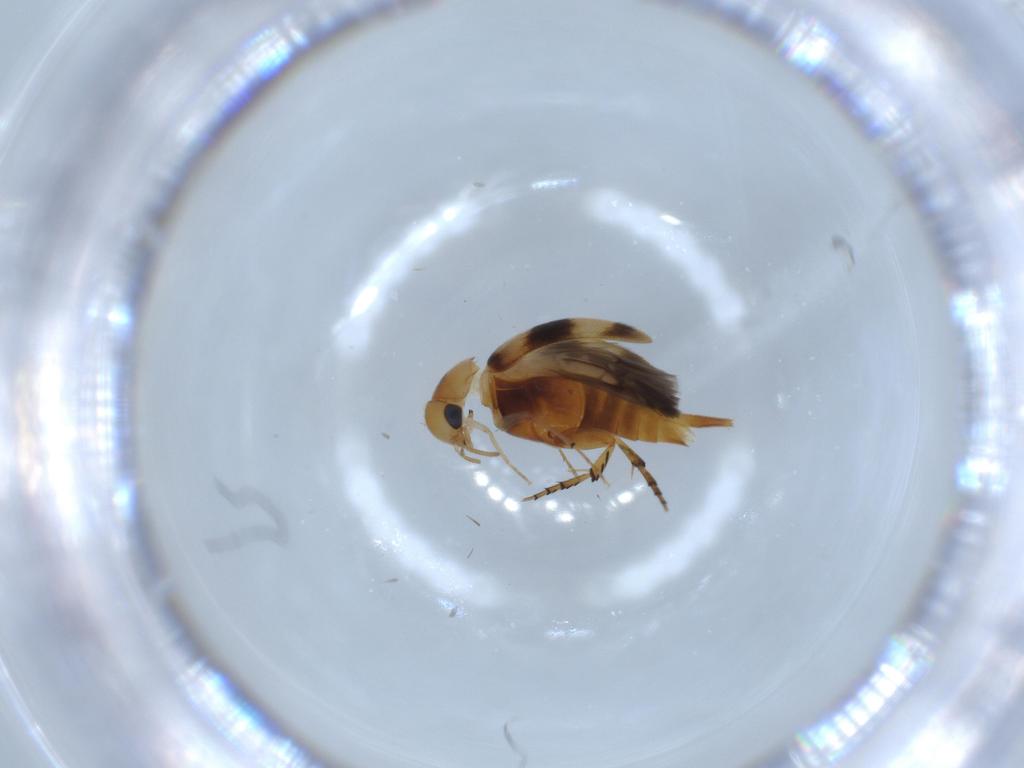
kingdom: Animalia
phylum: Arthropoda
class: Insecta
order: Coleoptera
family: Mordellidae
